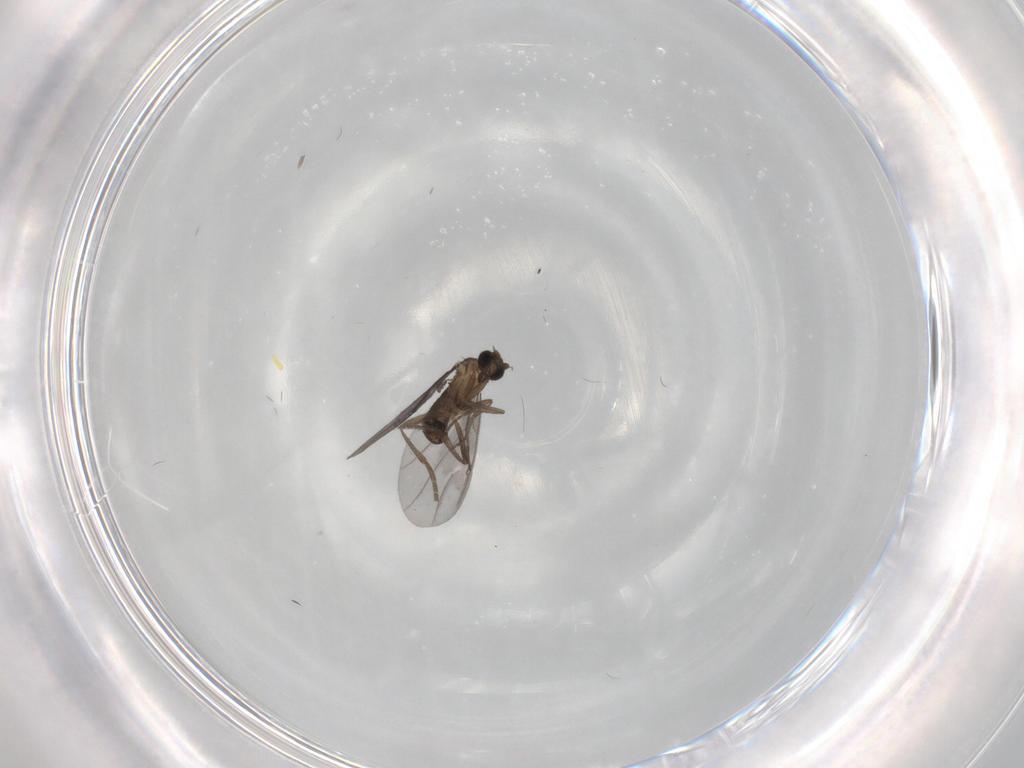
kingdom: Animalia
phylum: Arthropoda
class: Insecta
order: Diptera
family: Phoridae
